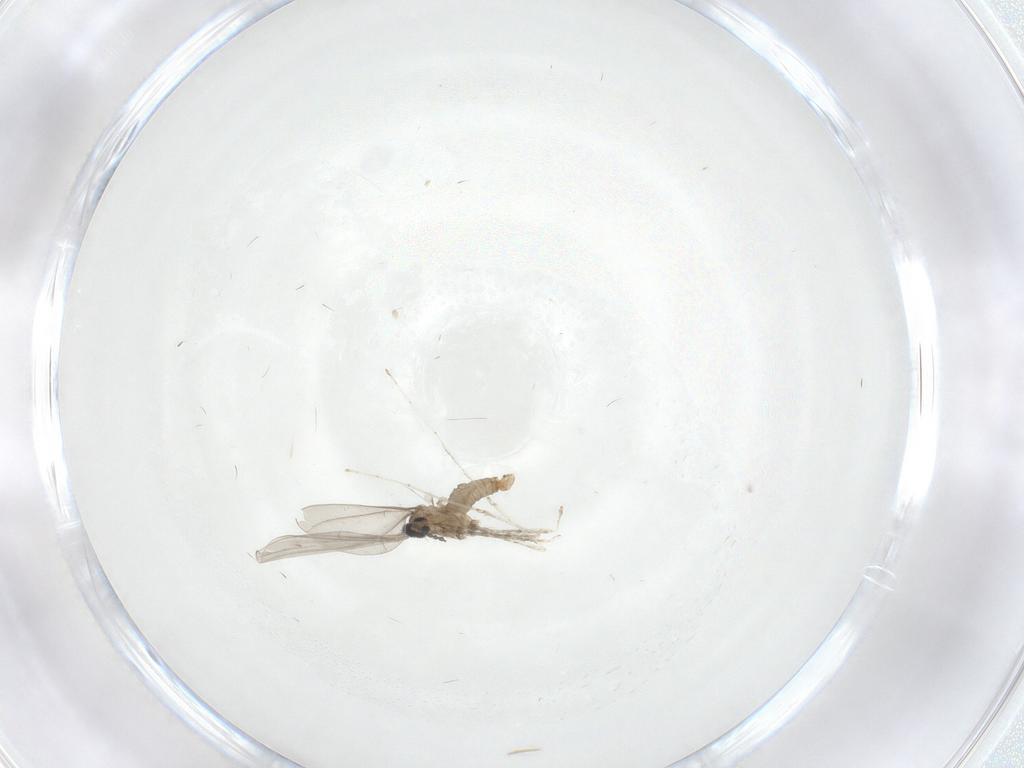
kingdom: Animalia
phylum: Arthropoda
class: Insecta
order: Diptera
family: Cecidomyiidae
